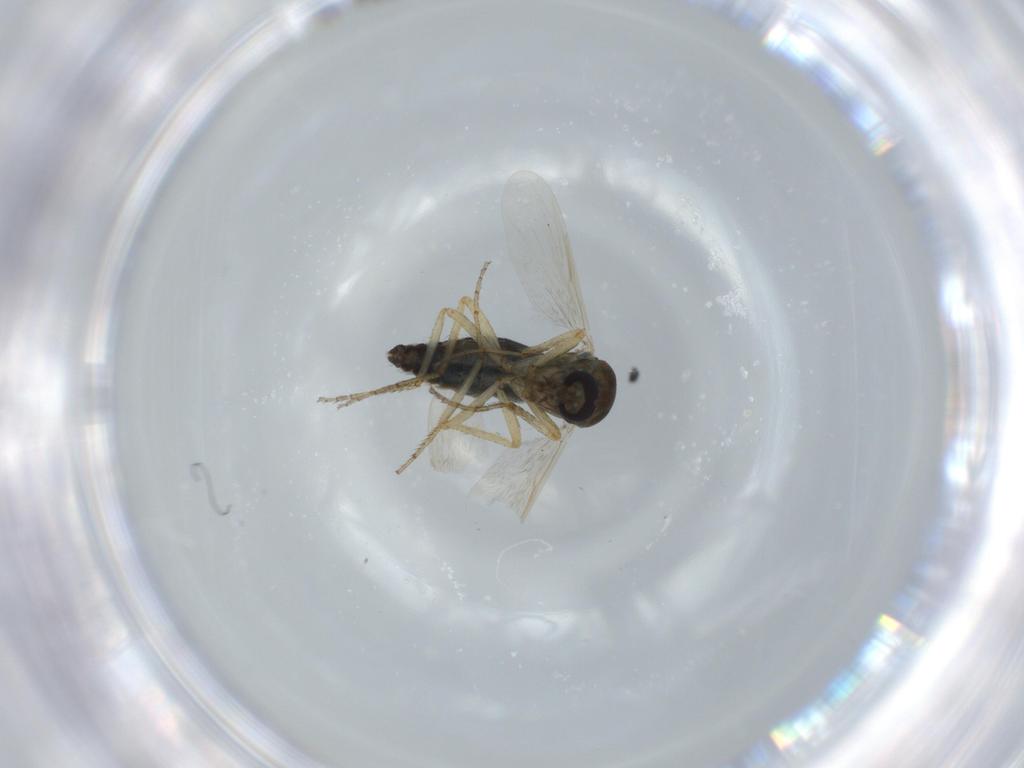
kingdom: Animalia
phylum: Arthropoda
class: Insecta
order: Diptera
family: Ceratopogonidae
